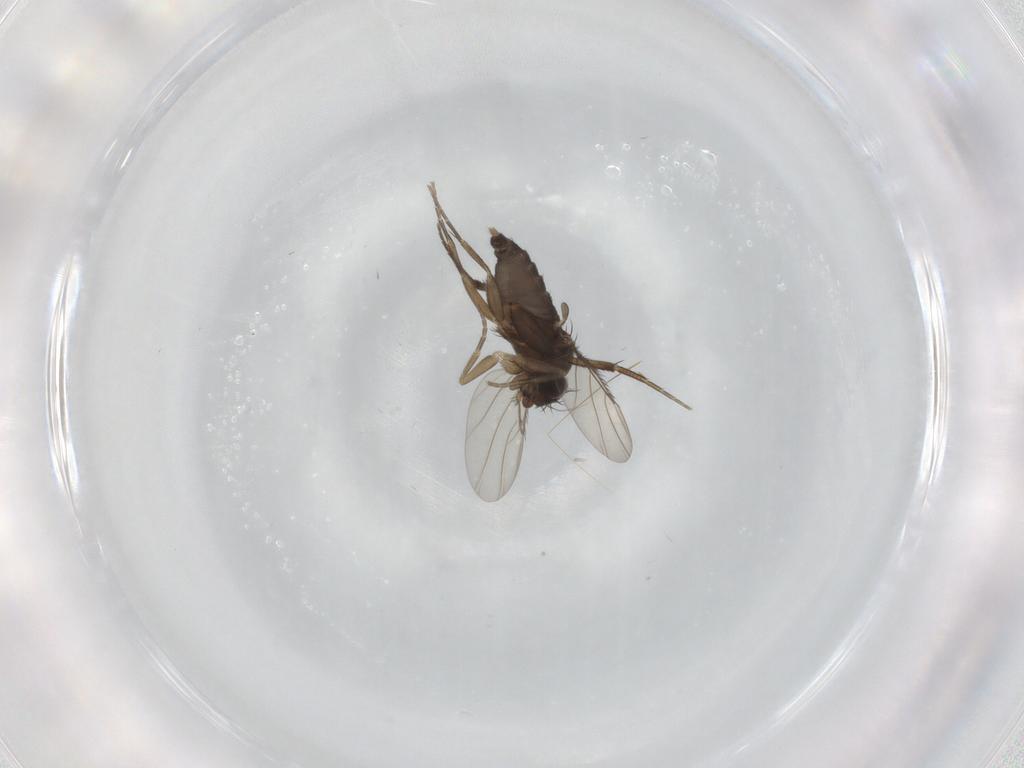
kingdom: Animalia
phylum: Arthropoda
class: Insecta
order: Diptera
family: Phoridae
